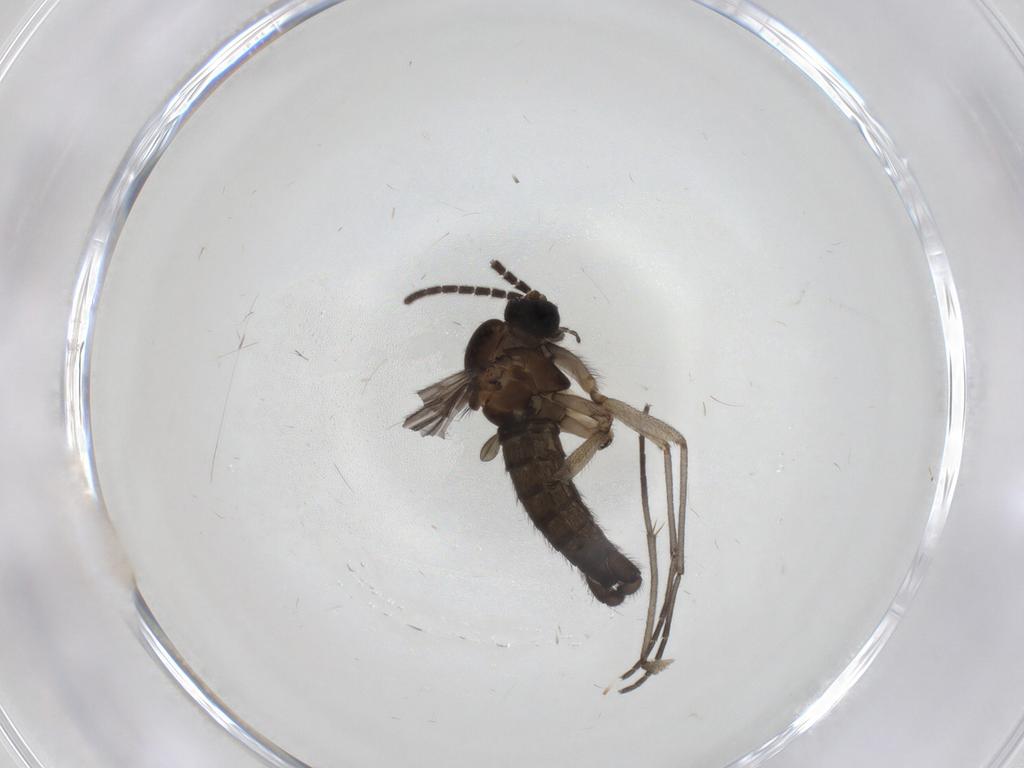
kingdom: Animalia
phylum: Arthropoda
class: Insecta
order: Diptera
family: Sciaridae
